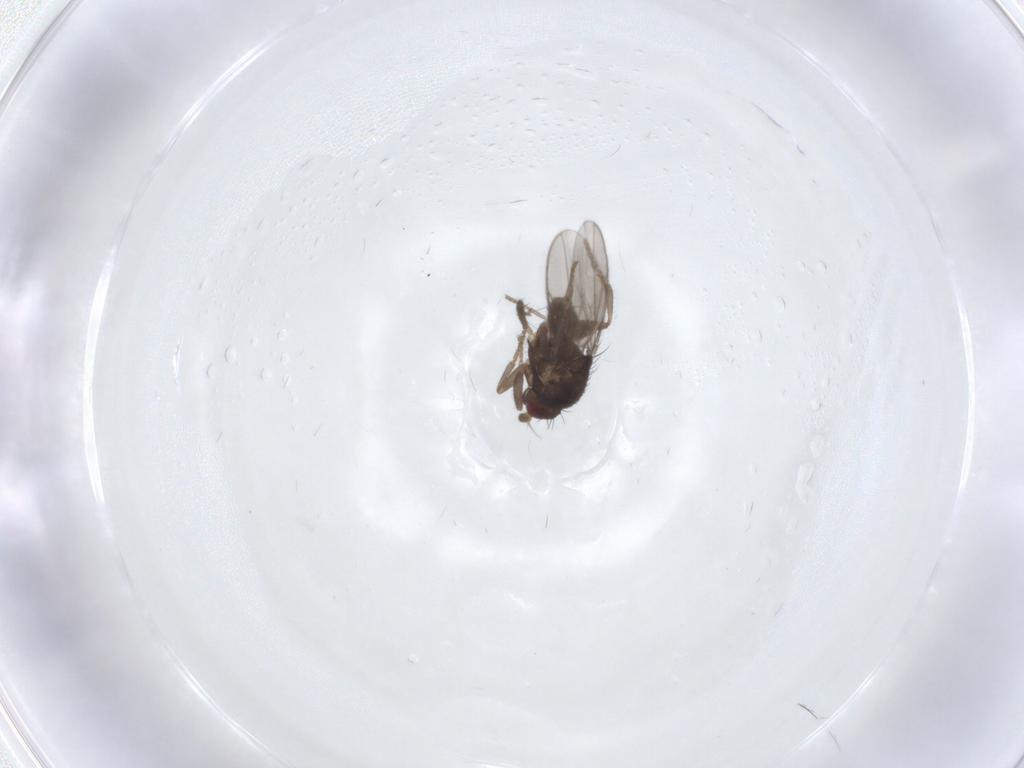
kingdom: Animalia
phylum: Arthropoda
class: Insecta
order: Diptera
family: Sphaeroceridae
